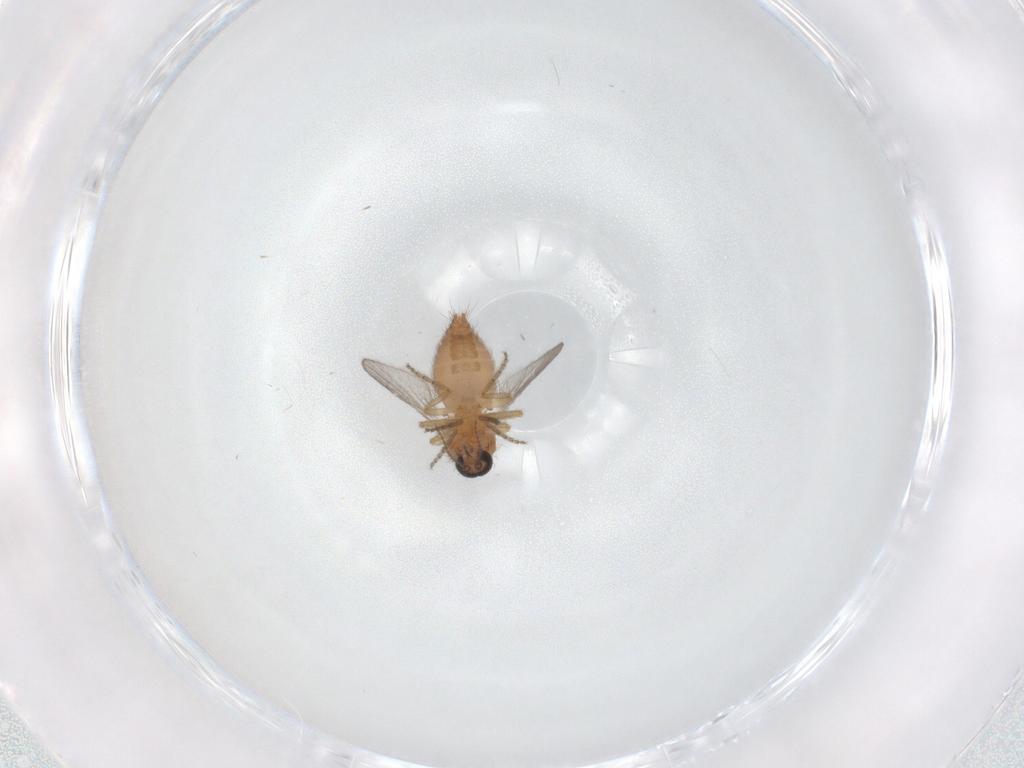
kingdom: Animalia
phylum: Arthropoda
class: Insecta
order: Diptera
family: Ceratopogonidae
